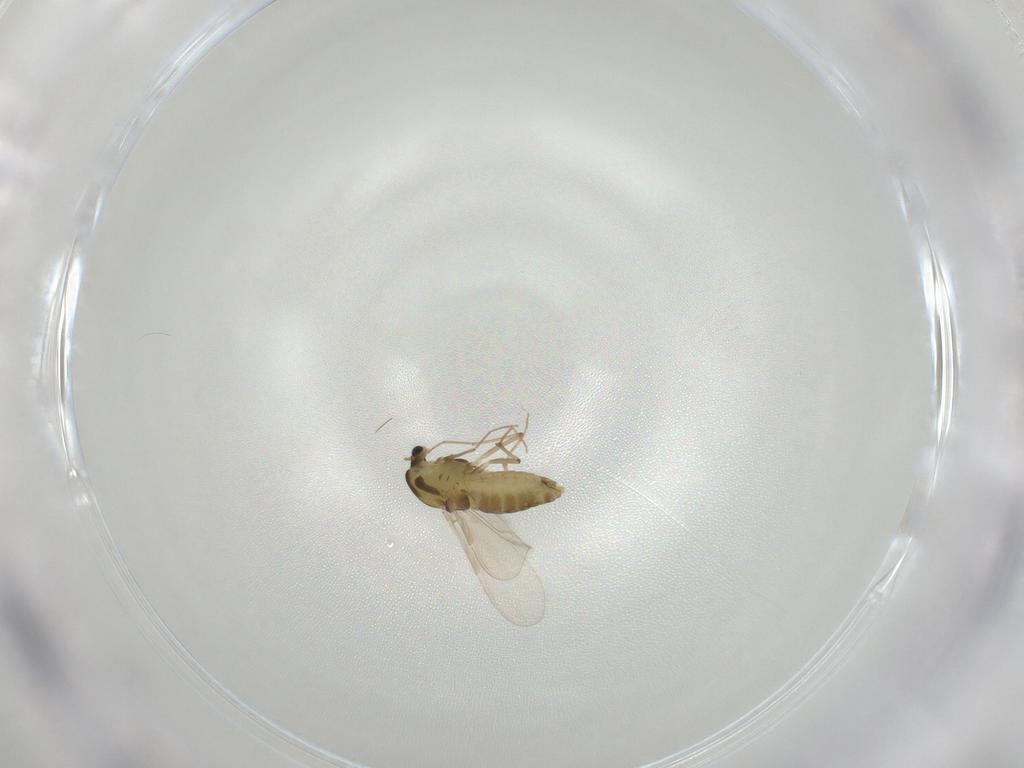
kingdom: Animalia
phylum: Arthropoda
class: Insecta
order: Diptera
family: Chironomidae
